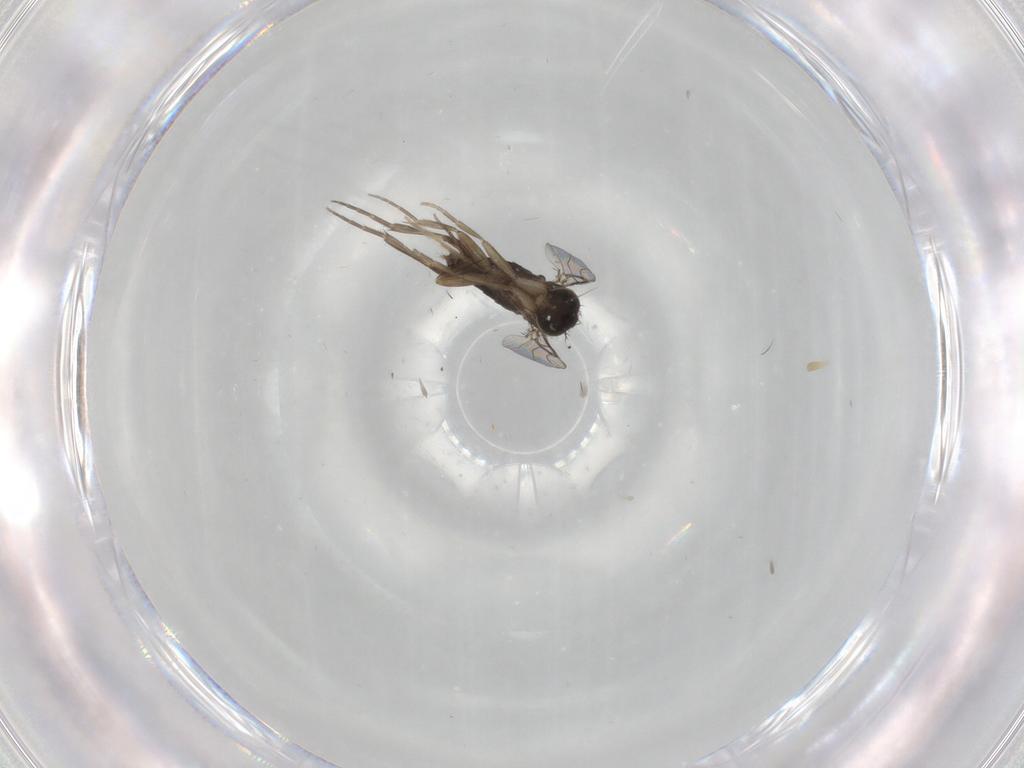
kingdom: Animalia
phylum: Arthropoda
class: Insecta
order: Diptera
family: Phoridae
